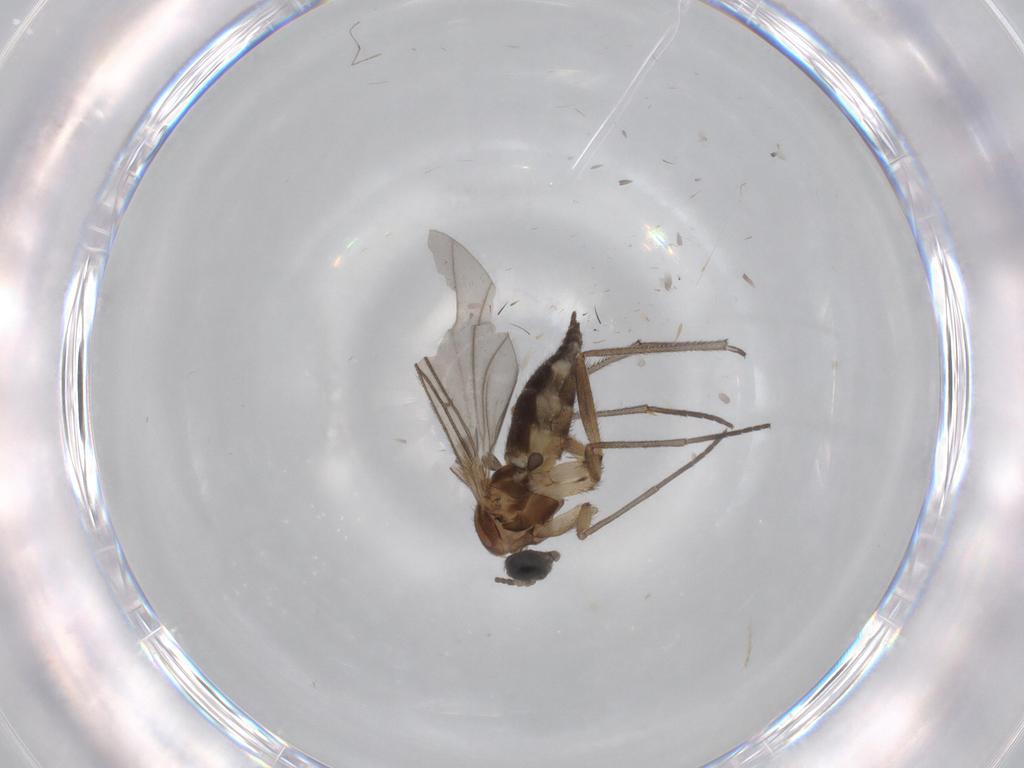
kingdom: Animalia
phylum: Arthropoda
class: Insecta
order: Diptera
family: Sciaridae
